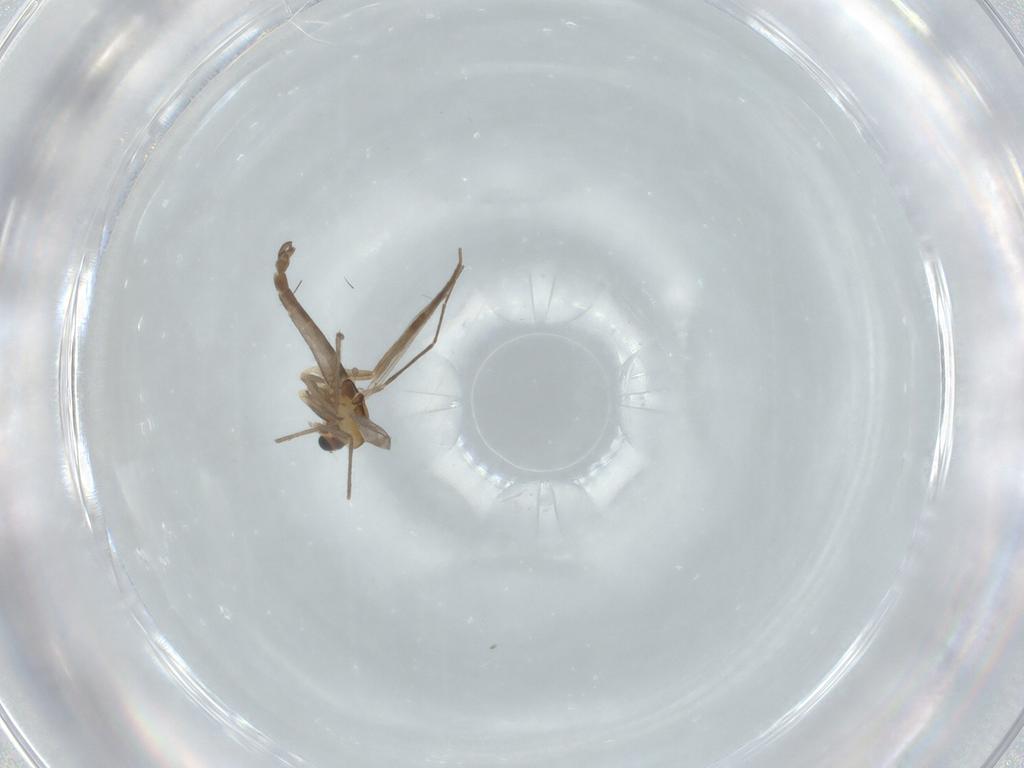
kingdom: Animalia
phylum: Arthropoda
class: Insecta
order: Diptera
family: Chironomidae
